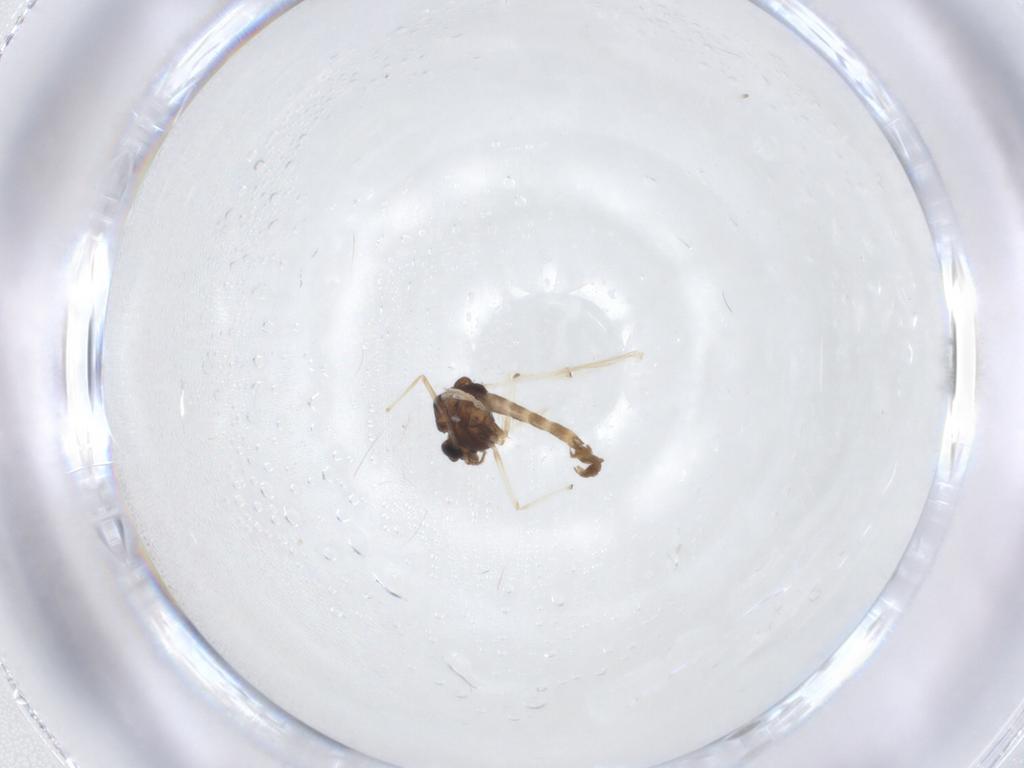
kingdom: Animalia
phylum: Arthropoda
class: Insecta
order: Diptera
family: Chironomidae
